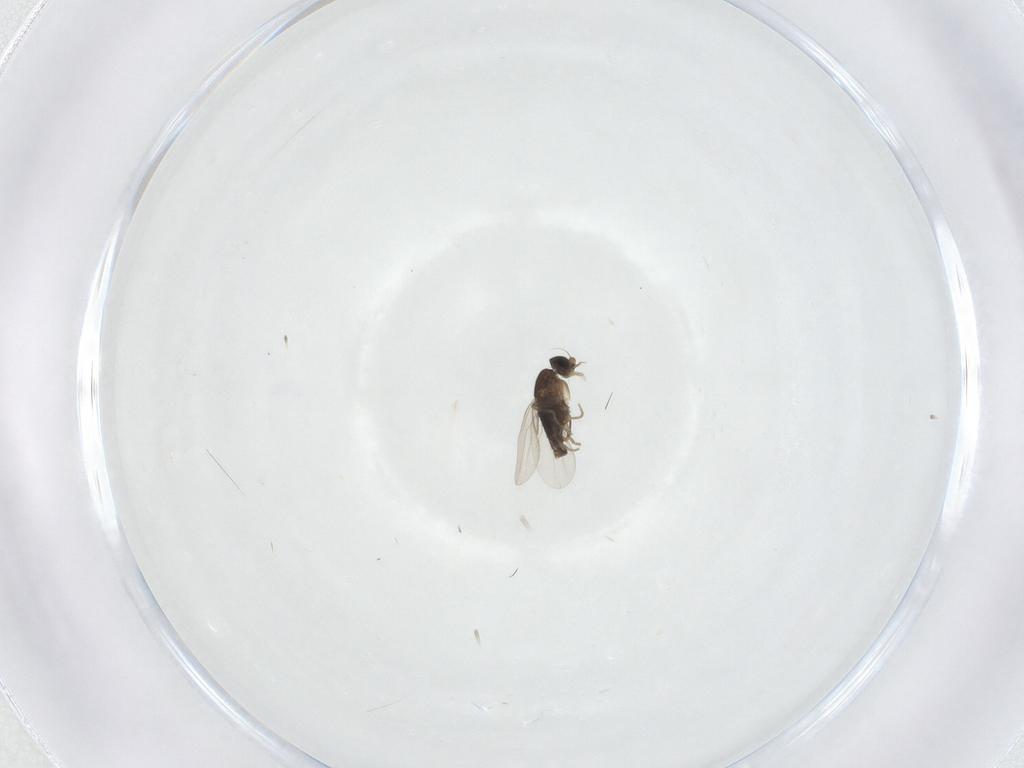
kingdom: Animalia
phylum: Arthropoda
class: Insecta
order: Diptera
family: Phoridae
